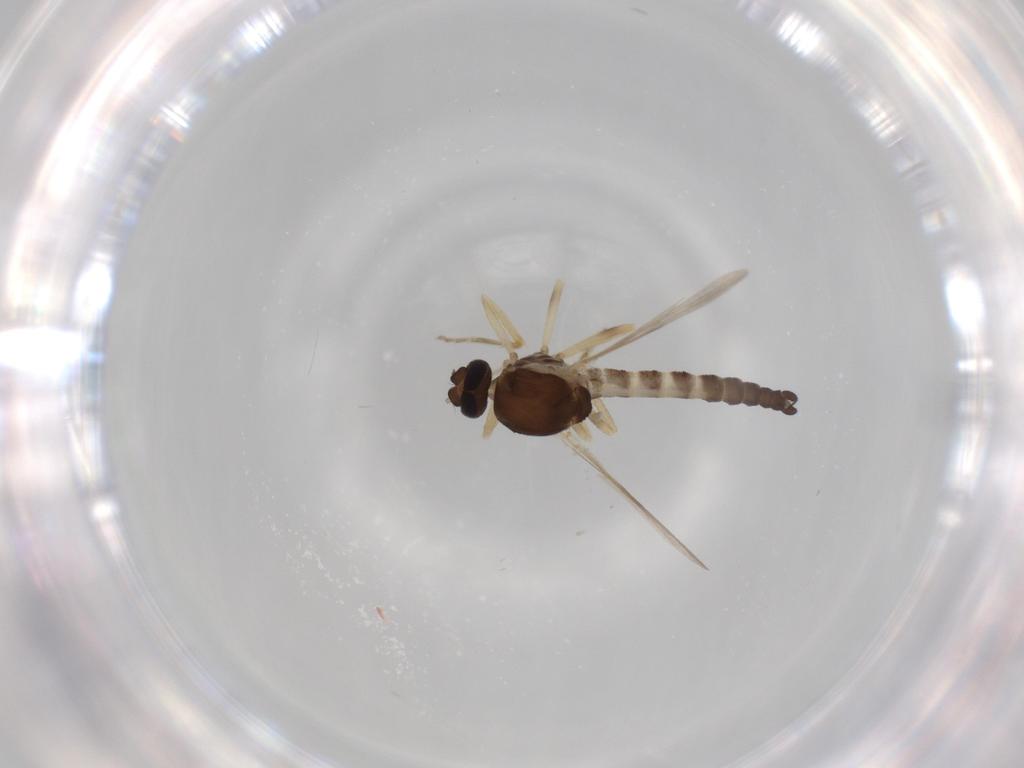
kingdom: Animalia
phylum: Arthropoda
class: Insecta
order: Diptera
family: Ceratopogonidae
